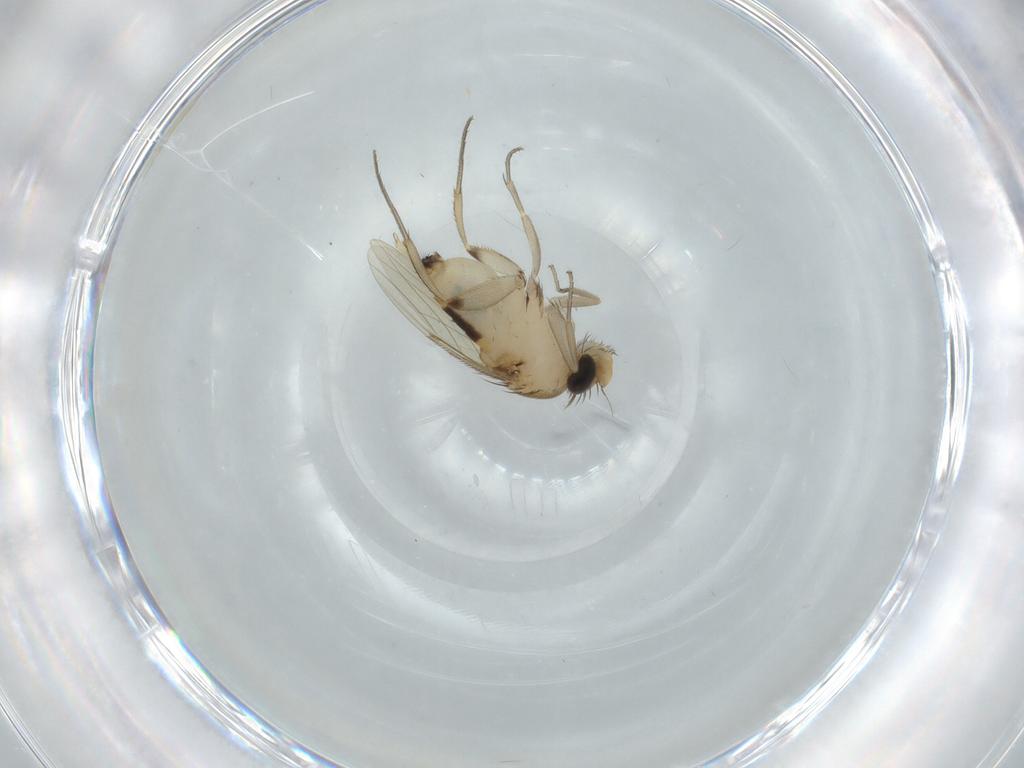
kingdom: Animalia
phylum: Arthropoda
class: Insecta
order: Diptera
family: Phoridae
